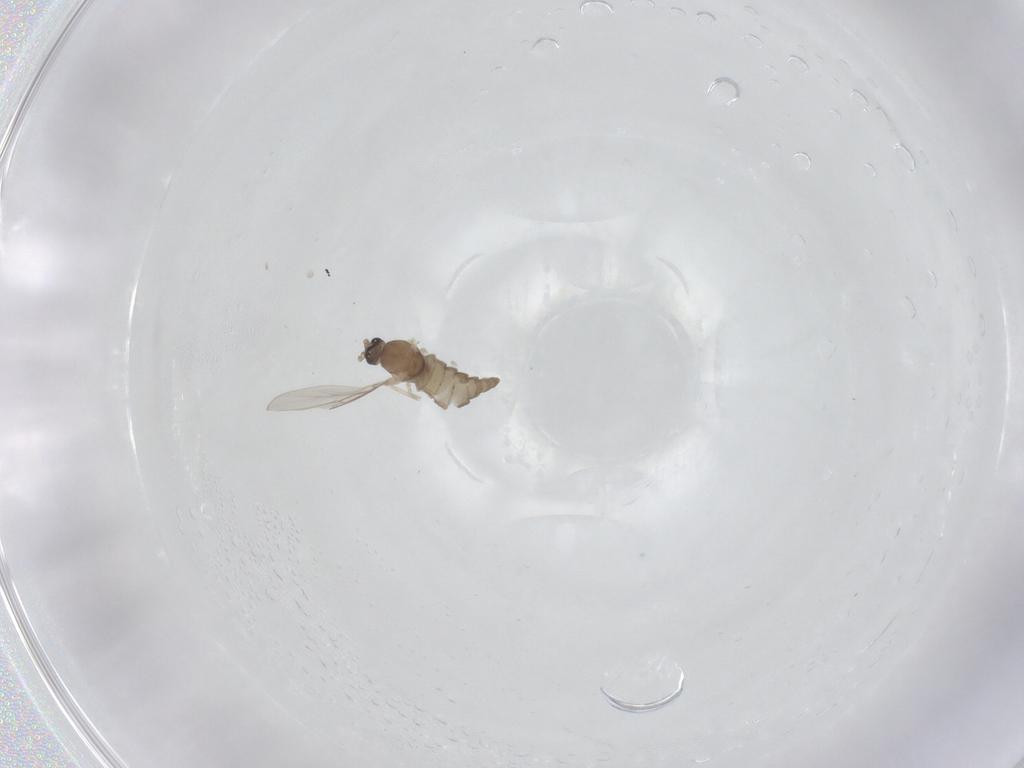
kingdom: Animalia
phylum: Arthropoda
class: Insecta
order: Diptera
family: Cecidomyiidae
